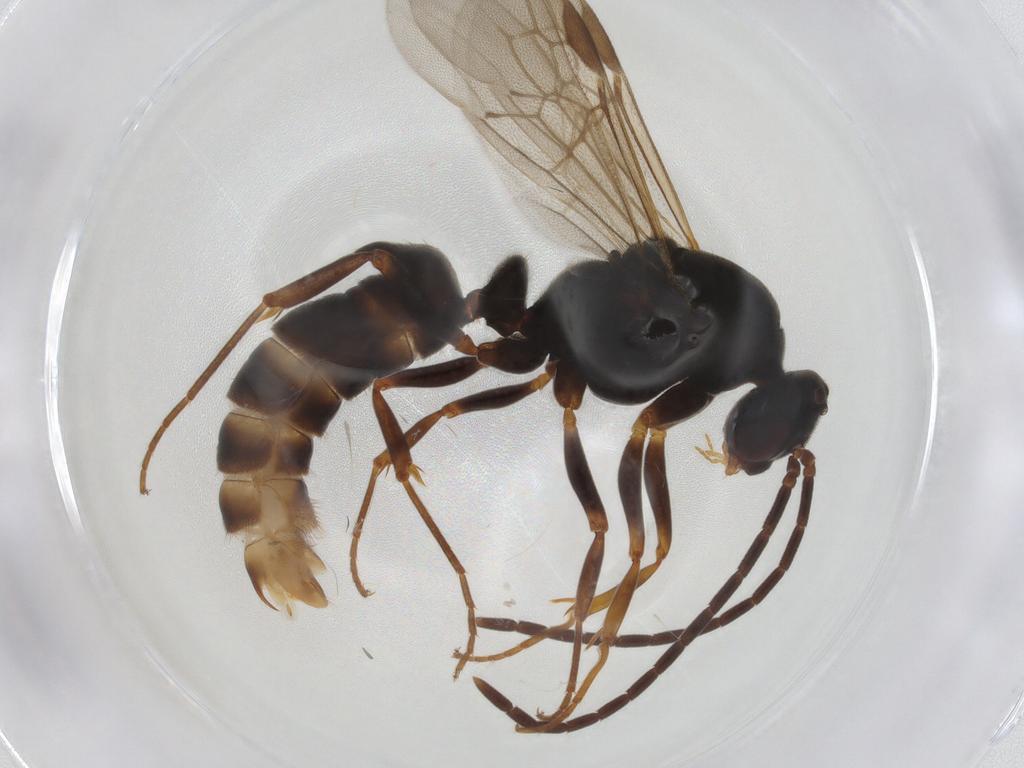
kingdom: Animalia
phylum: Arthropoda
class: Insecta
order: Hymenoptera
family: Formicidae
